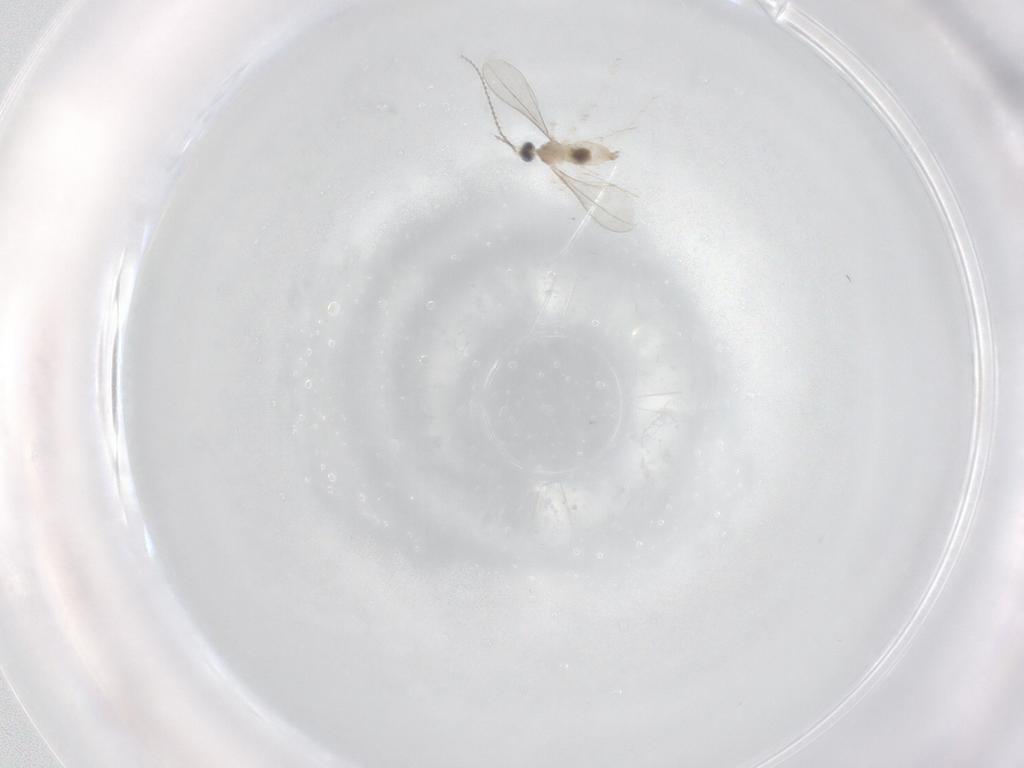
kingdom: Animalia
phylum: Arthropoda
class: Insecta
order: Diptera
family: Cecidomyiidae
